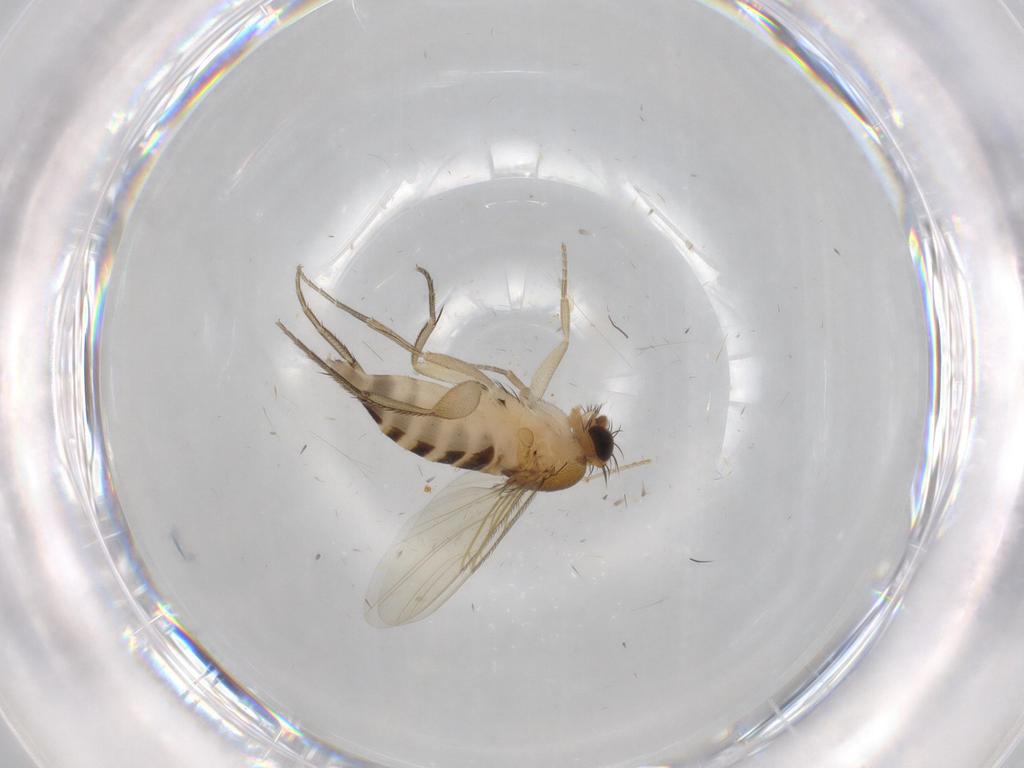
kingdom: Animalia
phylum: Arthropoda
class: Insecta
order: Diptera
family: Phoridae
